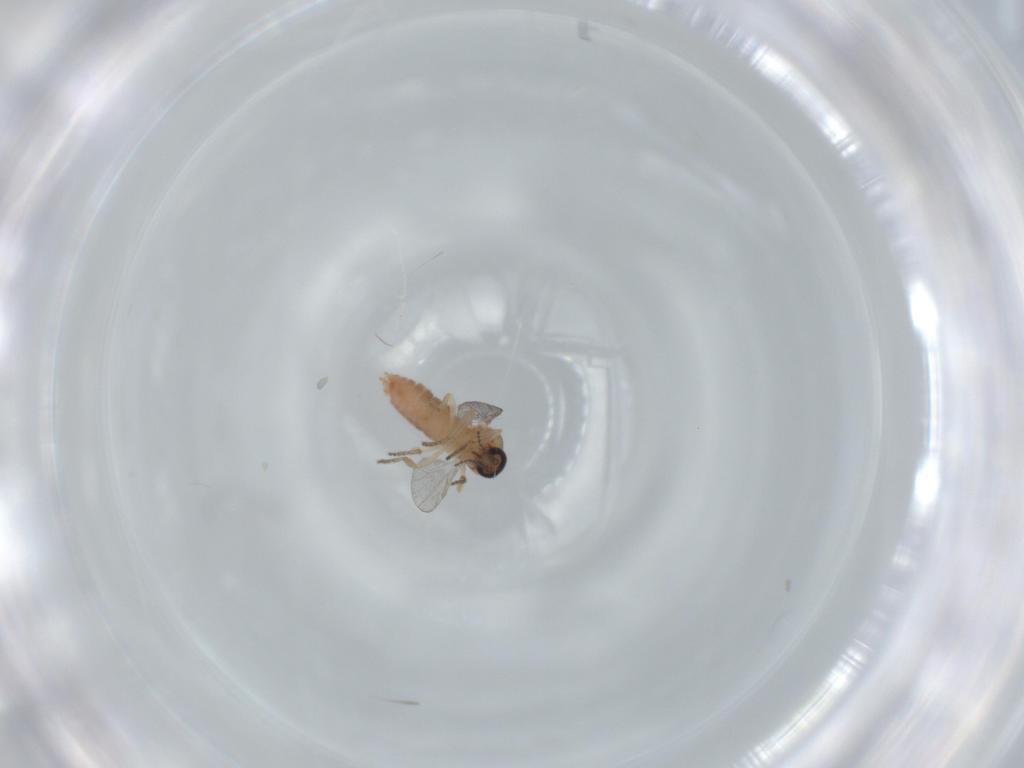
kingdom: Animalia
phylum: Arthropoda
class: Insecta
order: Diptera
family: Ceratopogonidae
